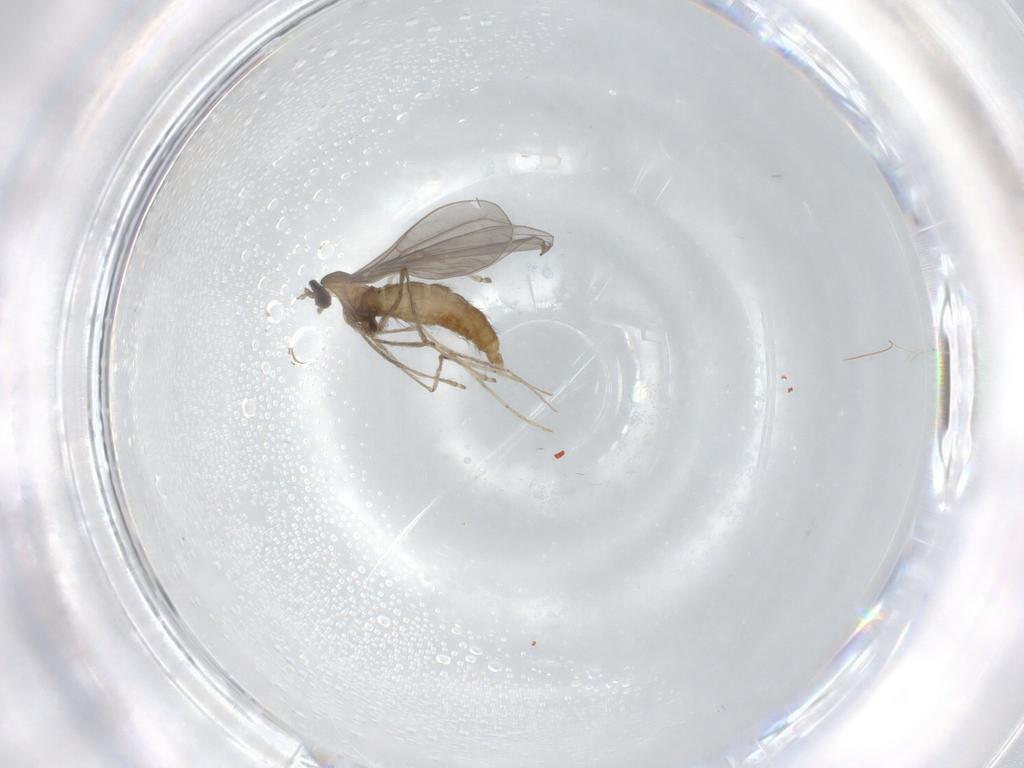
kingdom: Animalia
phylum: Arthropoda
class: Insecta
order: Diptera
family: Cecidomyiidae
